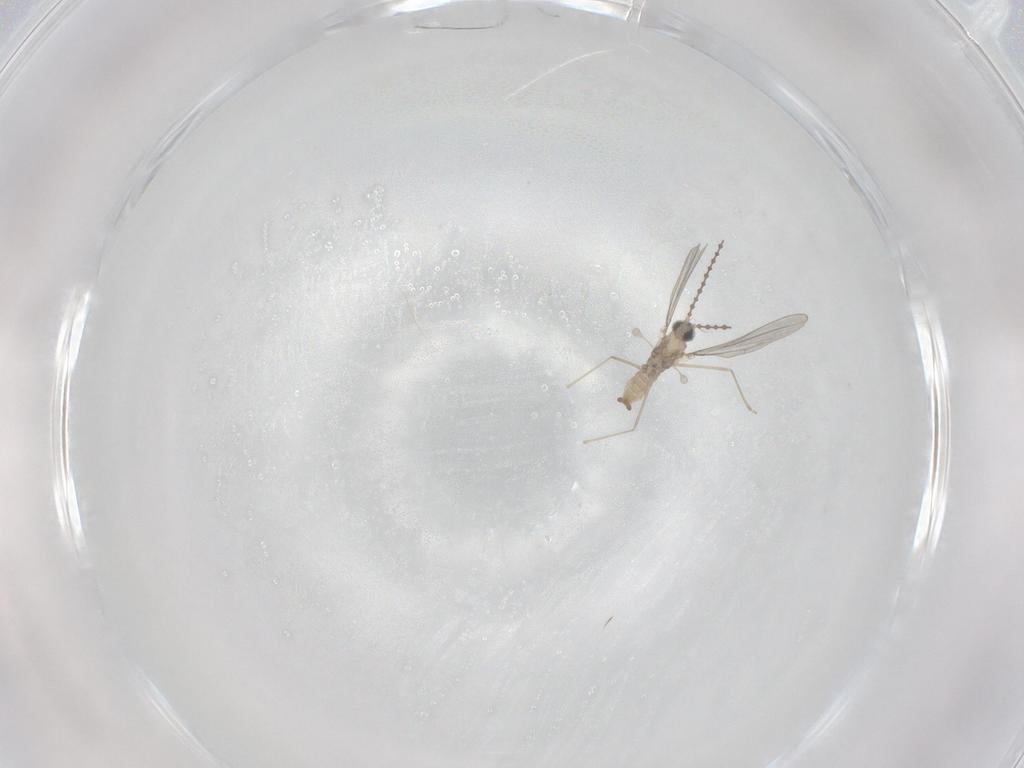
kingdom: Animalia
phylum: Arthropoda
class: Insecta
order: Diptera
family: Cecidomyiidae
